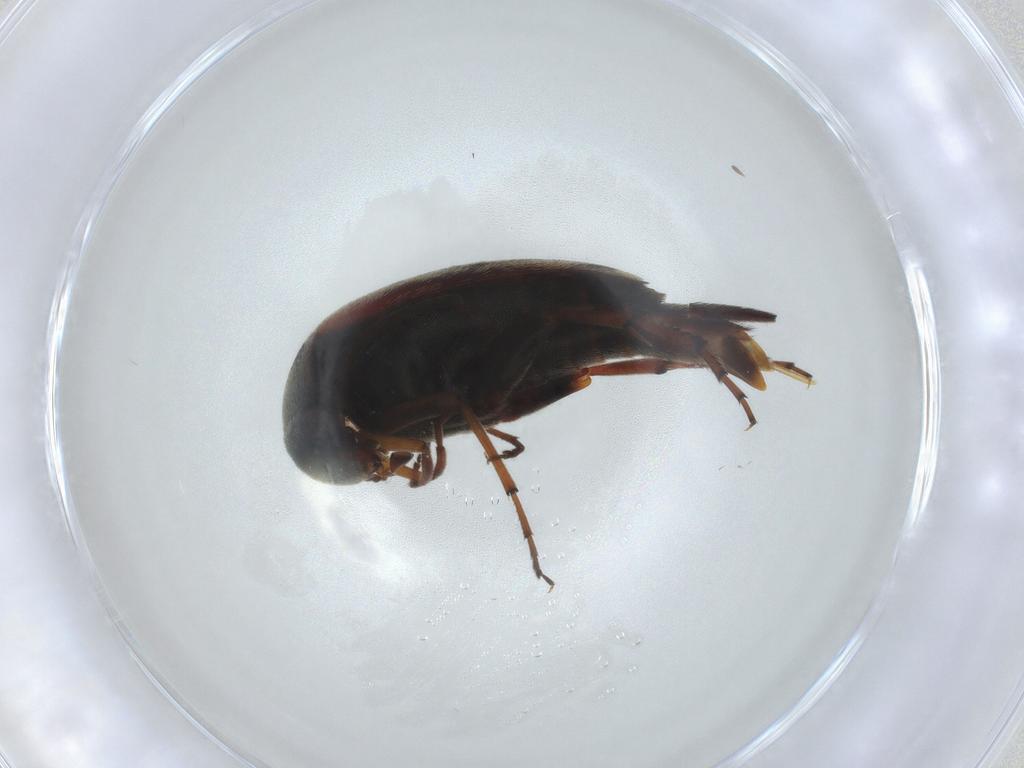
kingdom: Animalia
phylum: Arthropoda
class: Insecta
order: Coleoptera
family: Mordellidae
